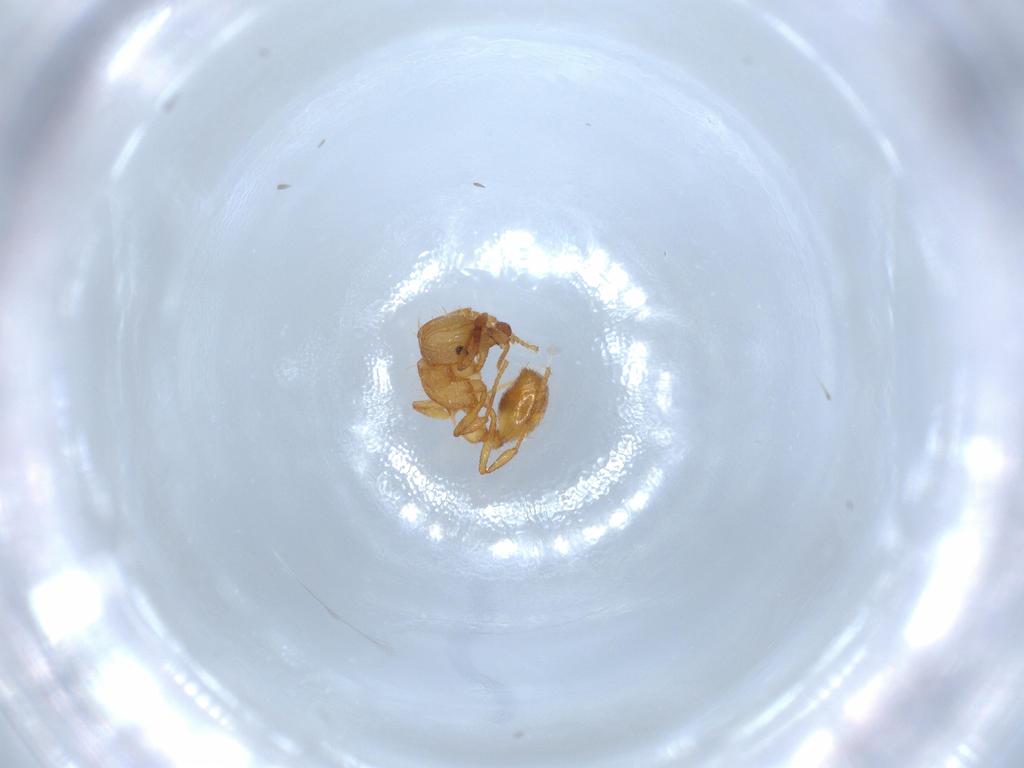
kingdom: Animalia
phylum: Arthropoda
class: Insecta
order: Hymenoptera
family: Formicidae
